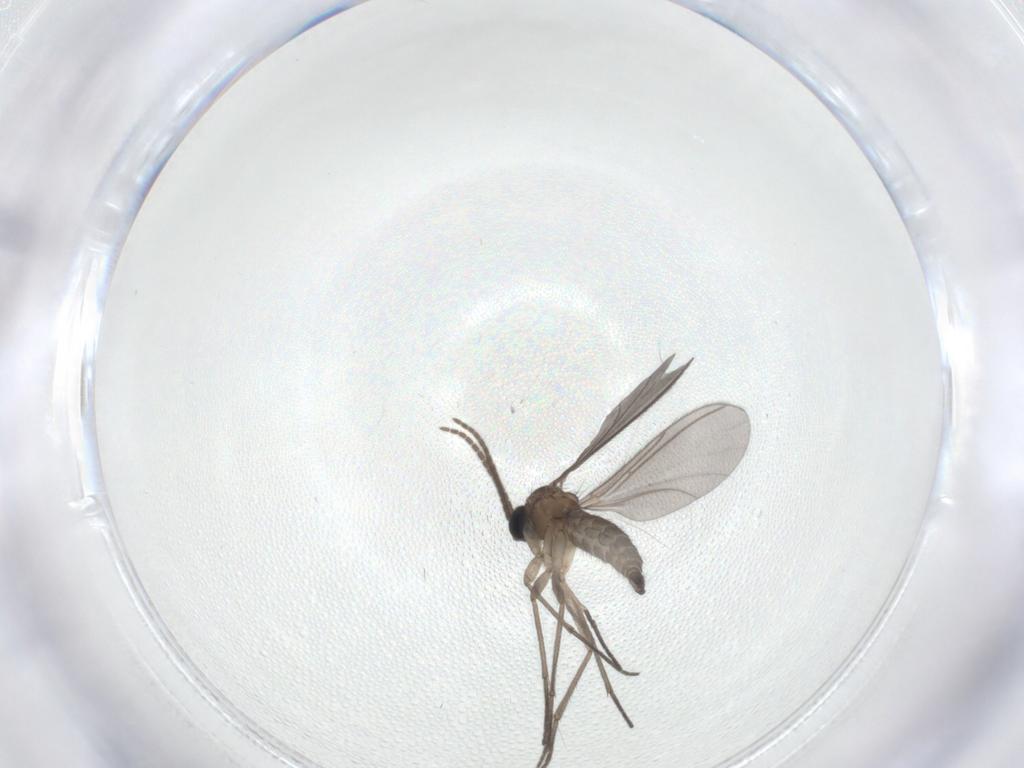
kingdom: Animalia
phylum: Arthropoda
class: Insecta
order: Diptera
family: Sciaridae
